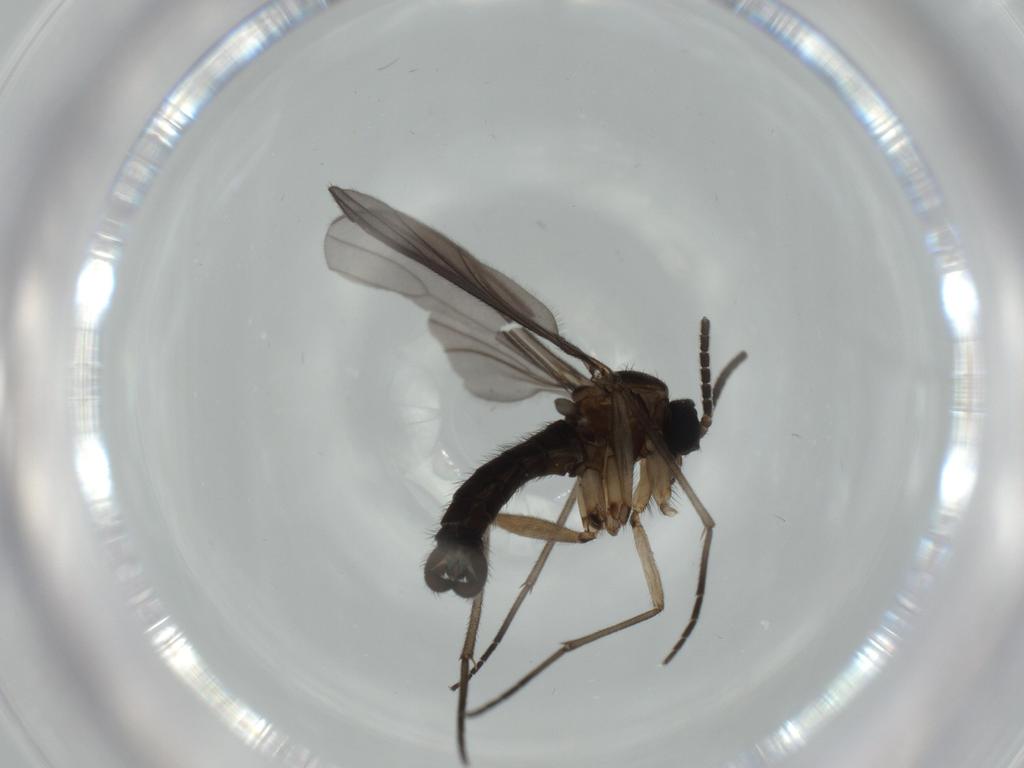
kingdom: Animalia
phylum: Arthropoda
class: Insecta
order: Diptera
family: Sciaridae
